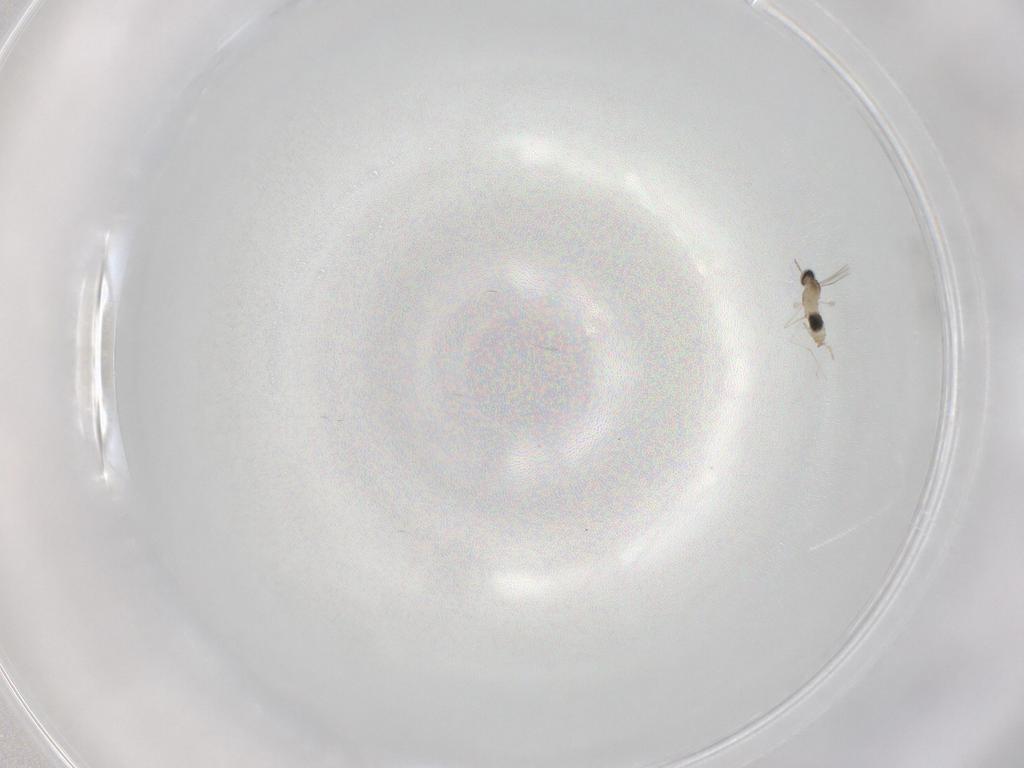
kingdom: Animalia
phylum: Arthropoda
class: Insecta
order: Diptera
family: Cecidomyiidae
